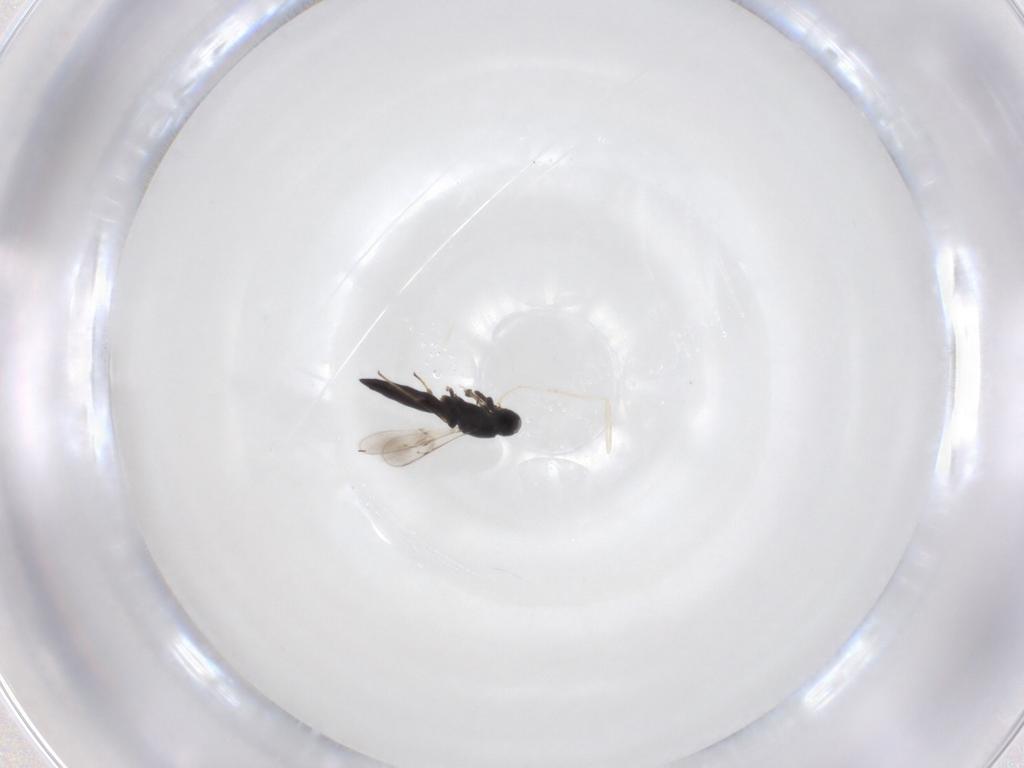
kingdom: Animalia
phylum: Arthropoda
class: Insecta
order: Hymenoptera
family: Scelionidae
